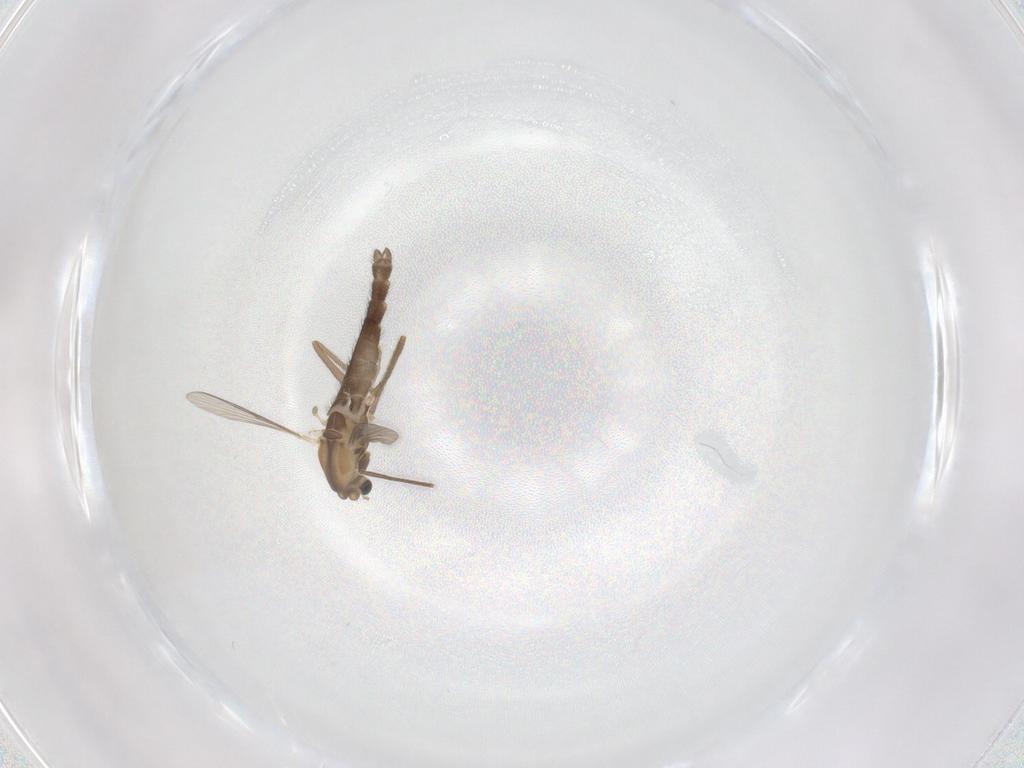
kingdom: Animalia
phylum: Arthropoda
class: Insecta
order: Diptera
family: Chironomidae
